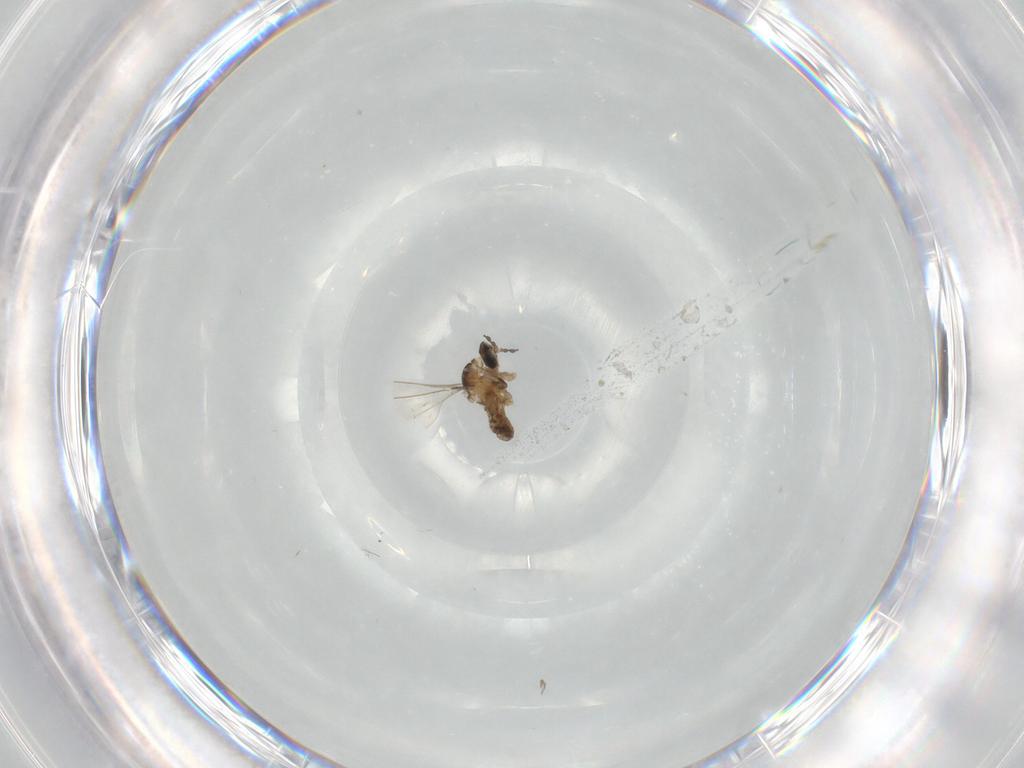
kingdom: Animalia
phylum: Arthropoda
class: Insecta
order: Diptera
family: Cecidomyiidae
